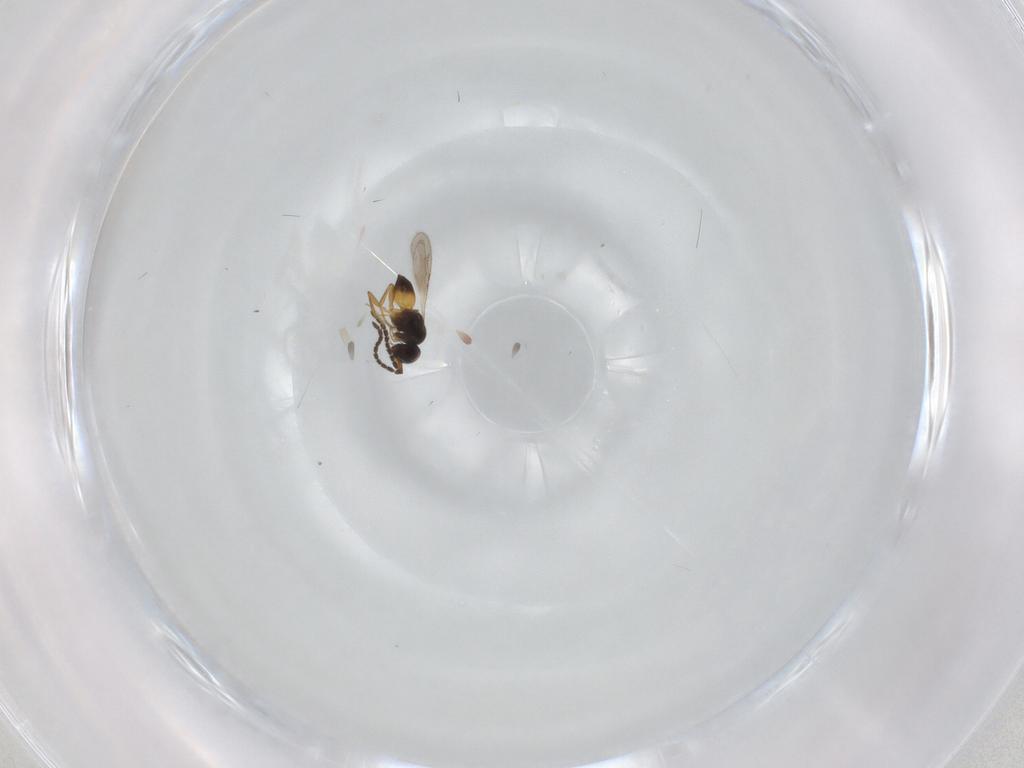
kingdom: Animalia
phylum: Arthropoda
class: Insecta
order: Hymenoptera
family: Ceraphronidae
